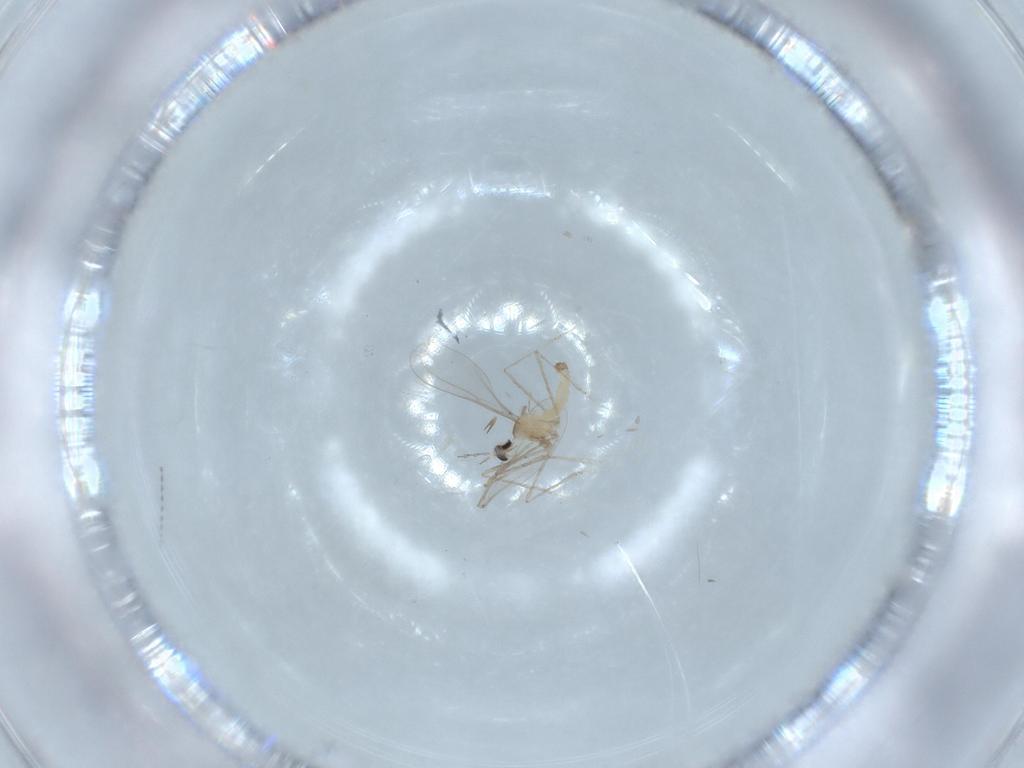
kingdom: Animalia
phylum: Arthropoda
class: Insecta
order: Diptera
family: Cecidomyiidae
